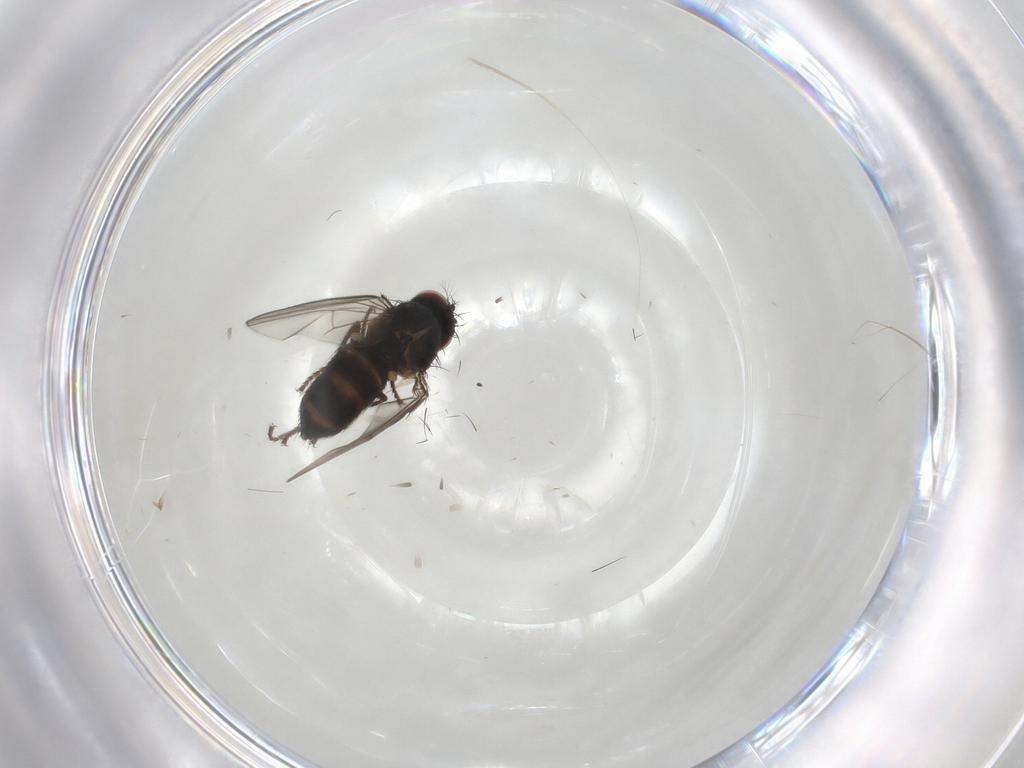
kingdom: Animalia
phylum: Arthropoda
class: Insecta
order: Diptera
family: Ephydridae
